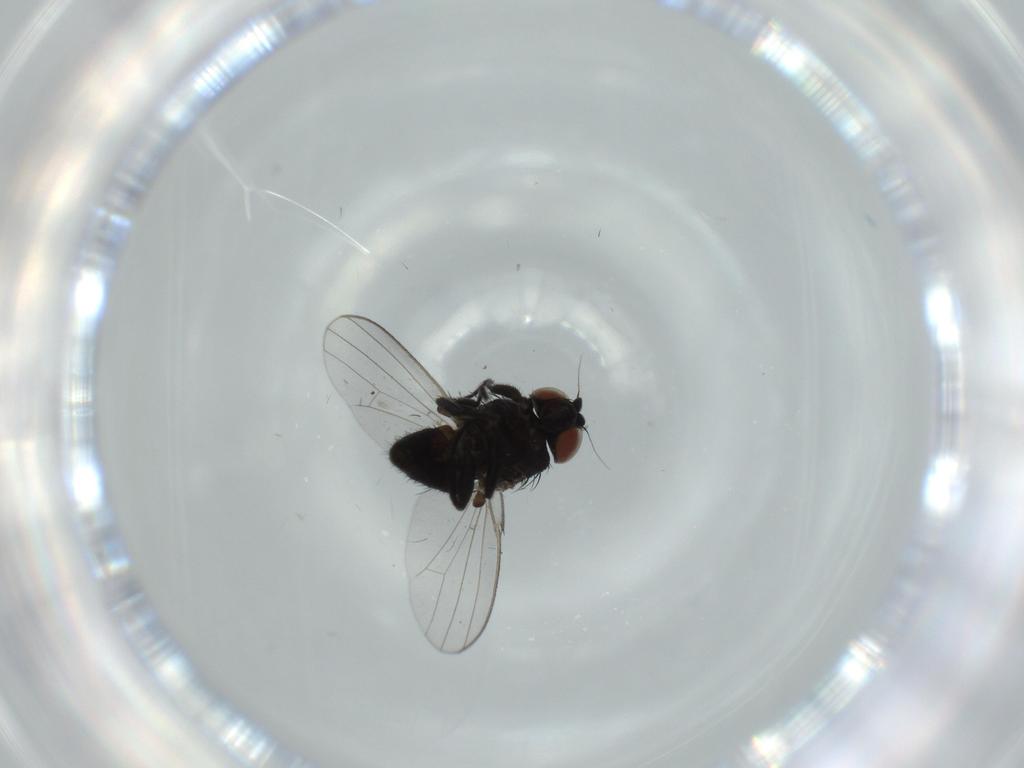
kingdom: Animalia
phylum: Arthropoda
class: Insecta
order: Diptera
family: Milichiidae
